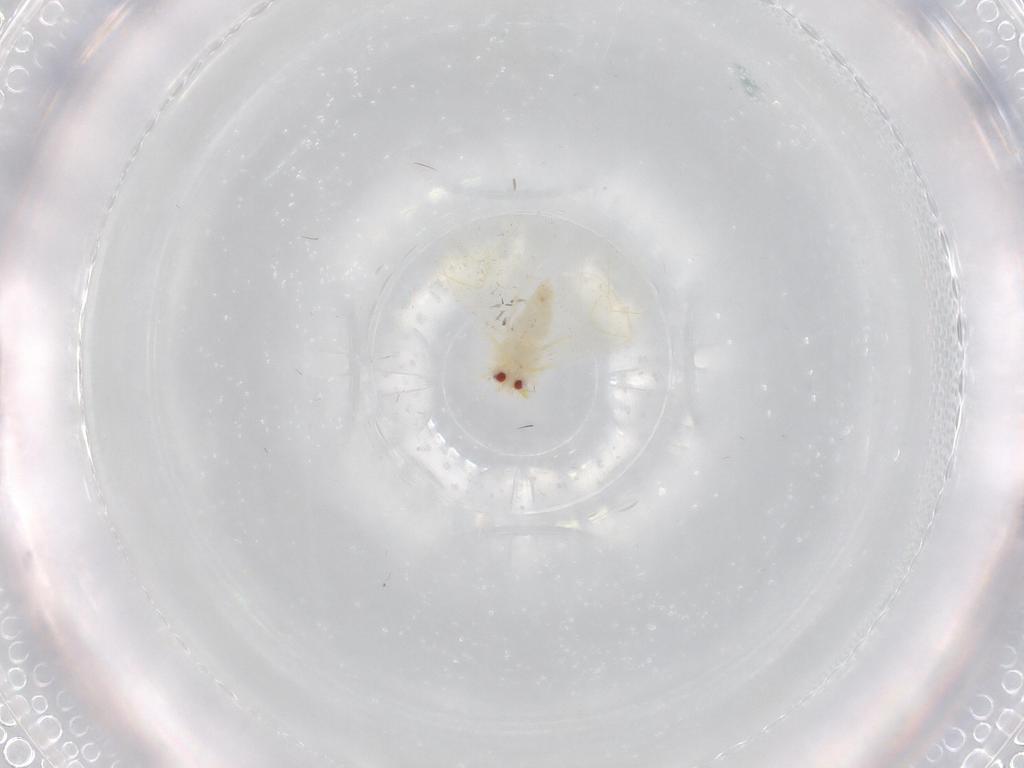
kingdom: Animalia
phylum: Arthropoda
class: Insecta
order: Hemiptera
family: Aleyrodidae
